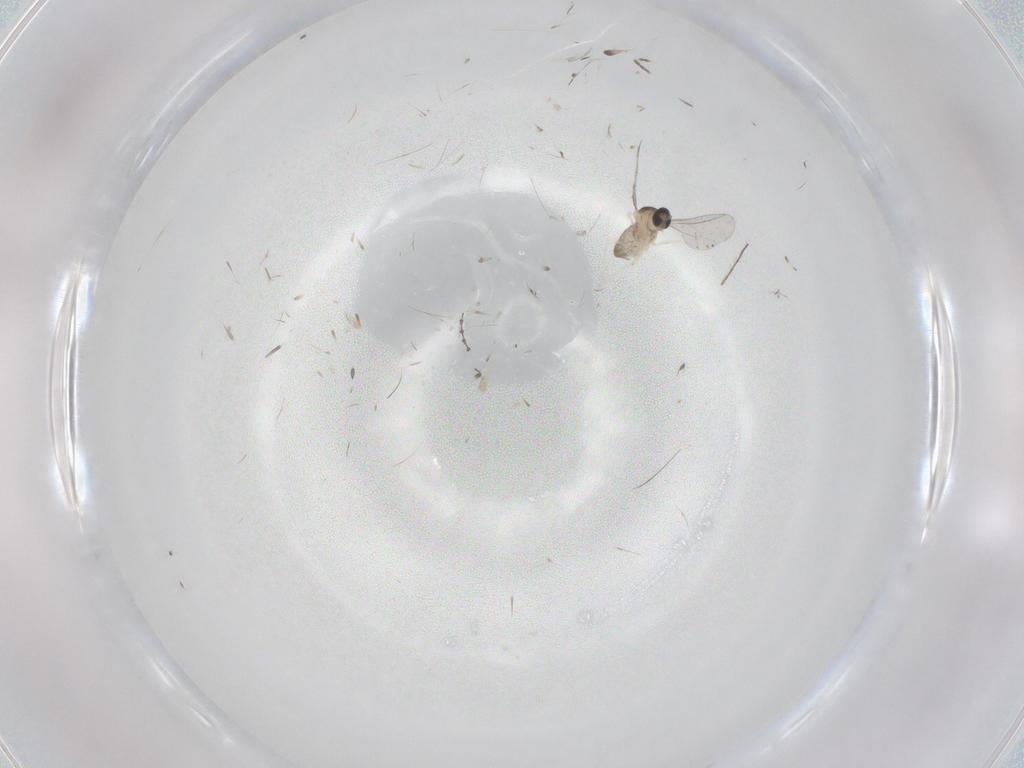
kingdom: Animalia
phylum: Arthropoda
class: Insecta
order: Diptera
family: Cecidomyiidae
